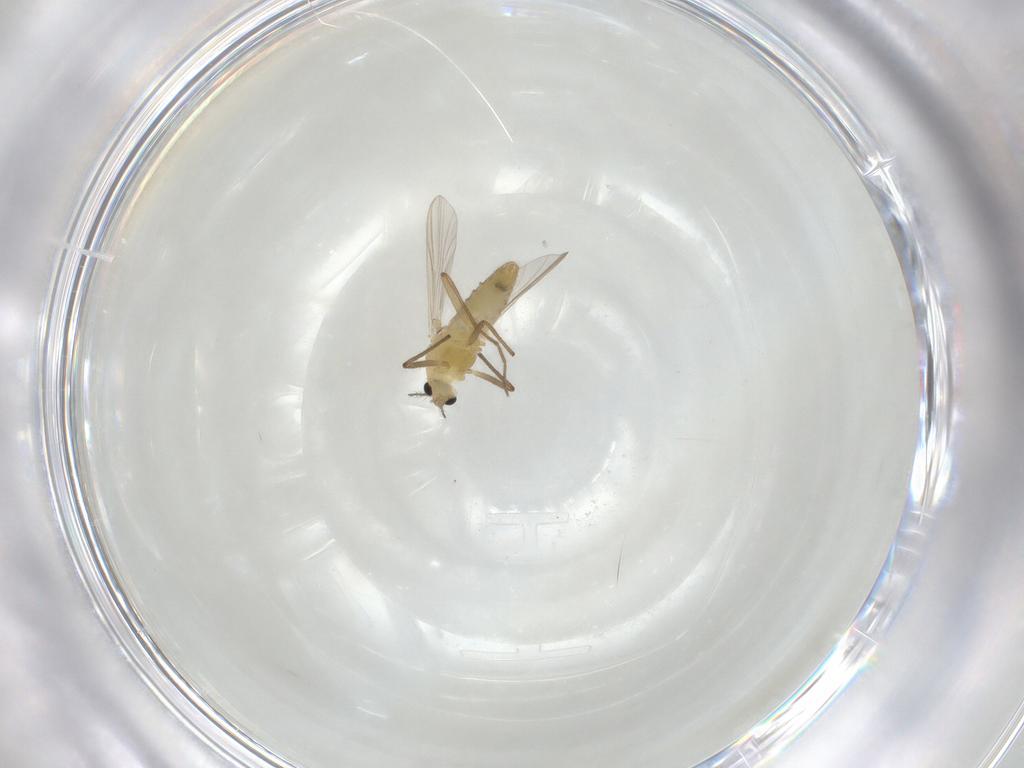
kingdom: Animalia
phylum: Arthropoda
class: Insecta
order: Diptera
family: Chironomidae
